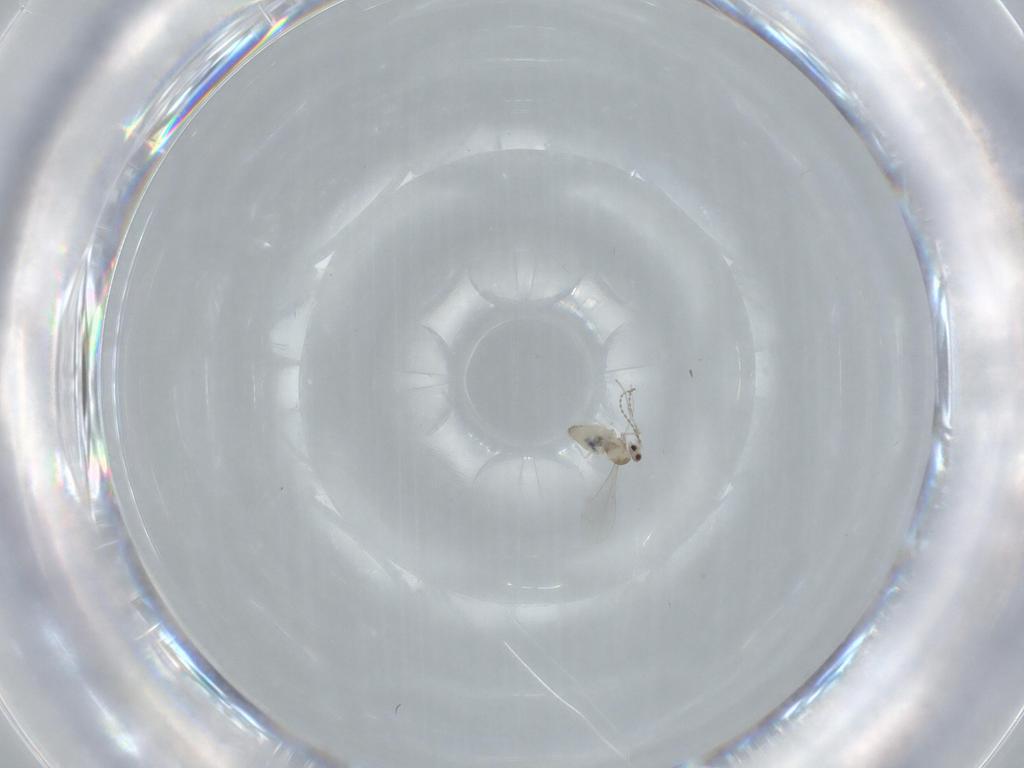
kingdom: Animalia
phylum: Arthropoda
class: Insecta
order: Diptera
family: Cecidomyiidae
